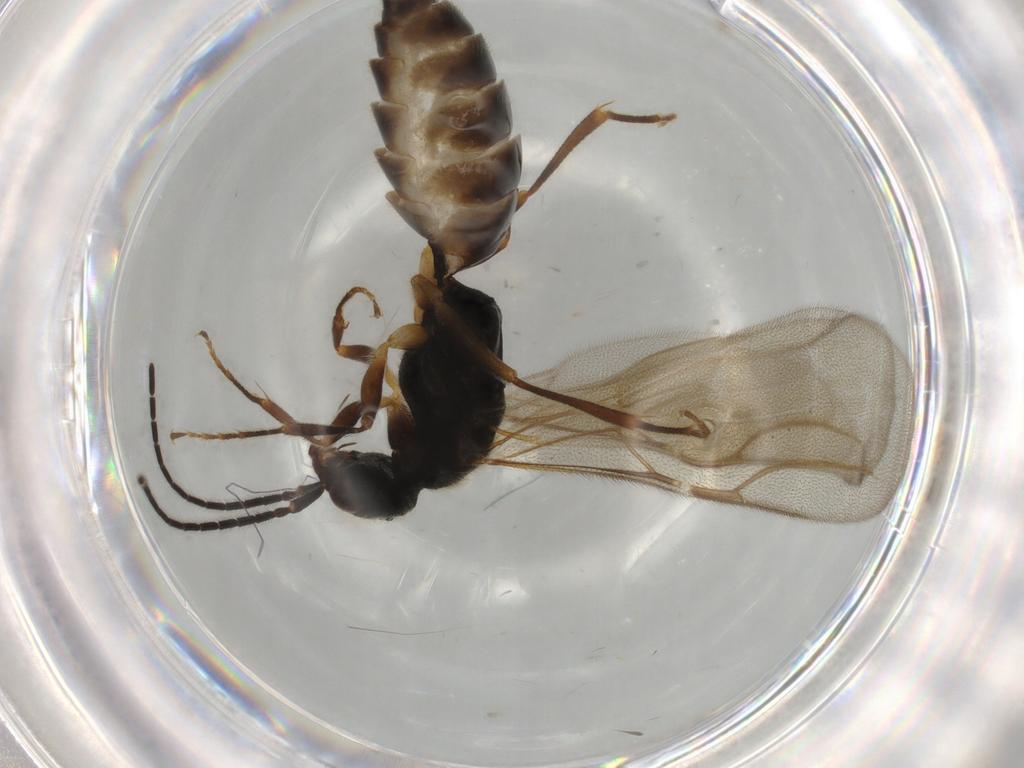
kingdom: Animalia
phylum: Arthropoda
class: Insecta
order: Hymenoptera
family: Bethylidae
